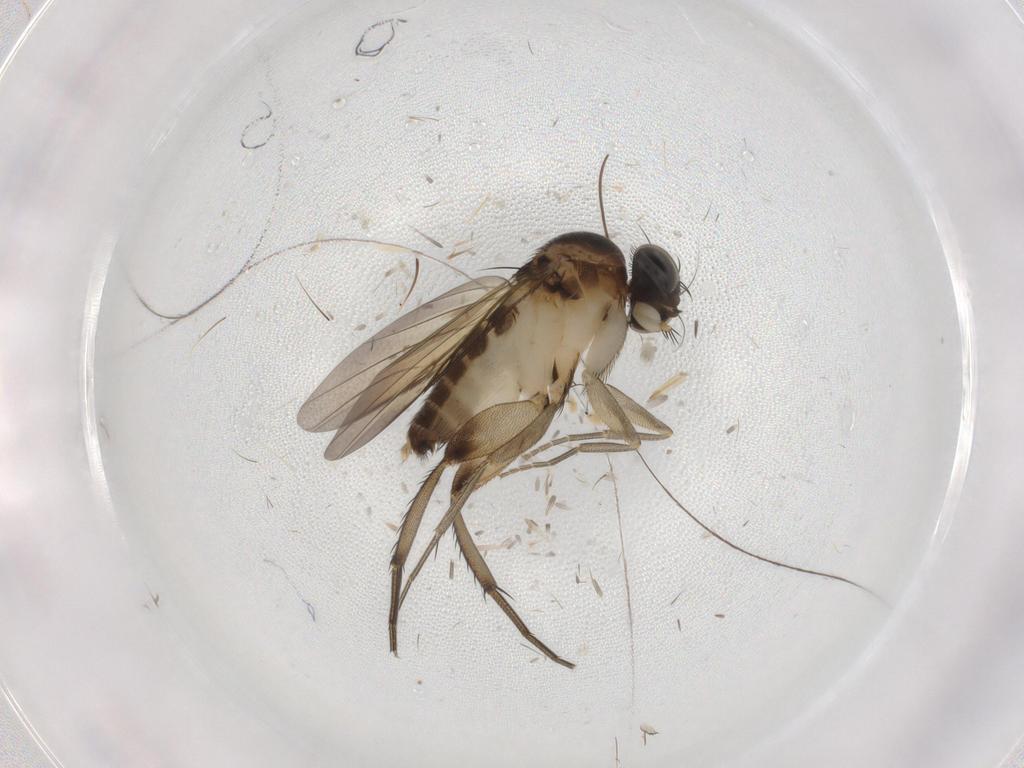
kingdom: Animalia
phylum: Arthropoda
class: Insecta
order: Diptera
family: Phoridae
